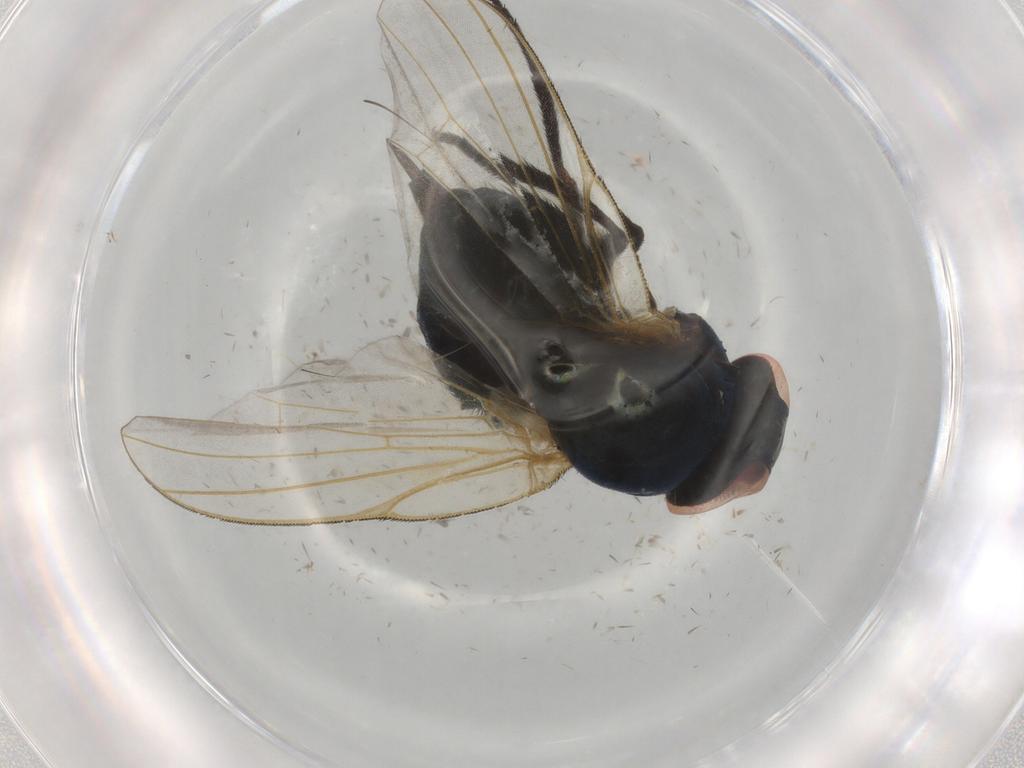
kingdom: Animalia
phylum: Arthropoda
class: Insecta
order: Diptera
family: Lonchaeidae
